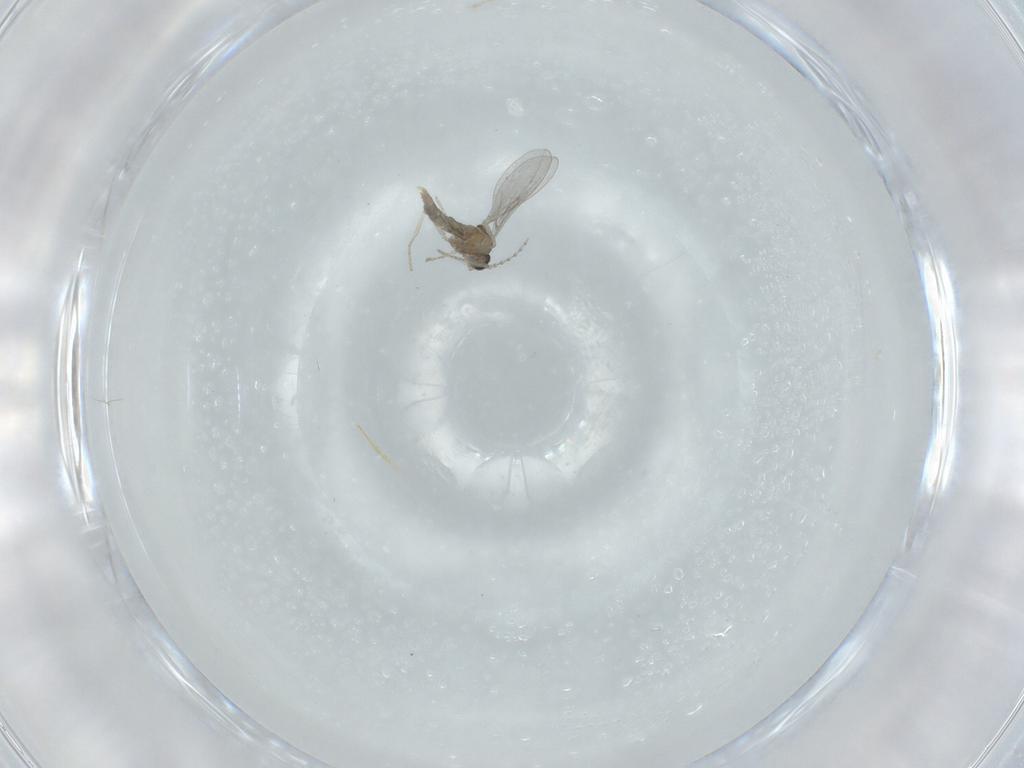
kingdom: Animalia
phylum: Arthropoda
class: Insecta
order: Diptera
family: Cecidomyiidae
